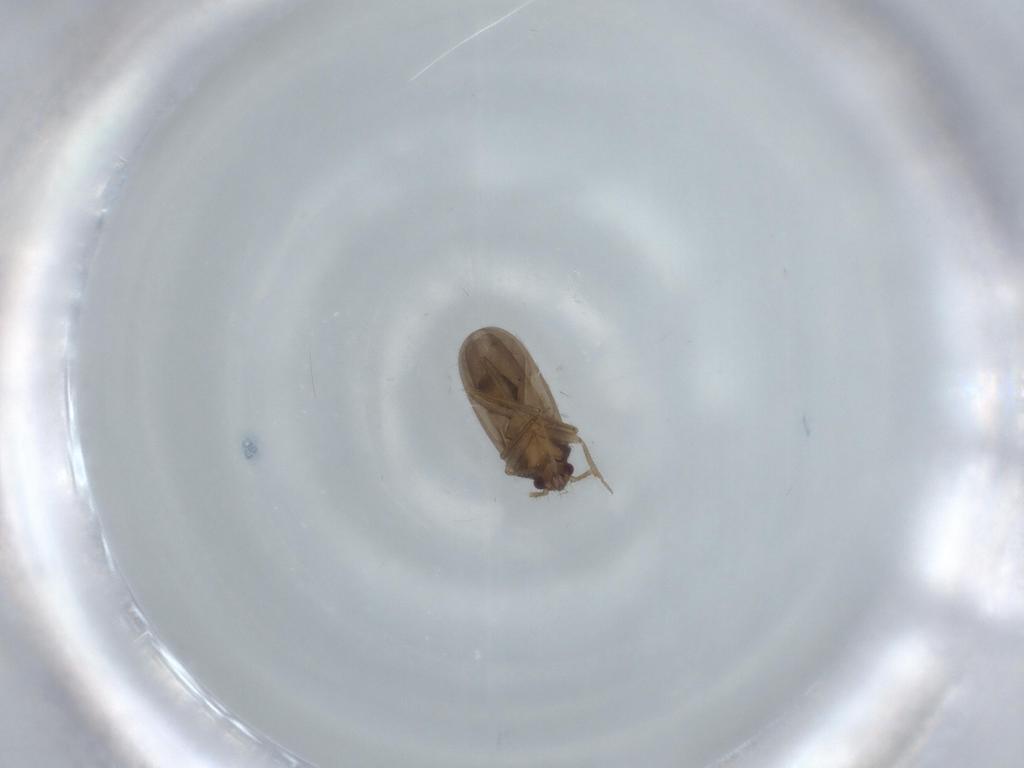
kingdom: Animalia
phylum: Arthropoda
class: Insecta
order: Hemiptera
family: Ceratocombidae
